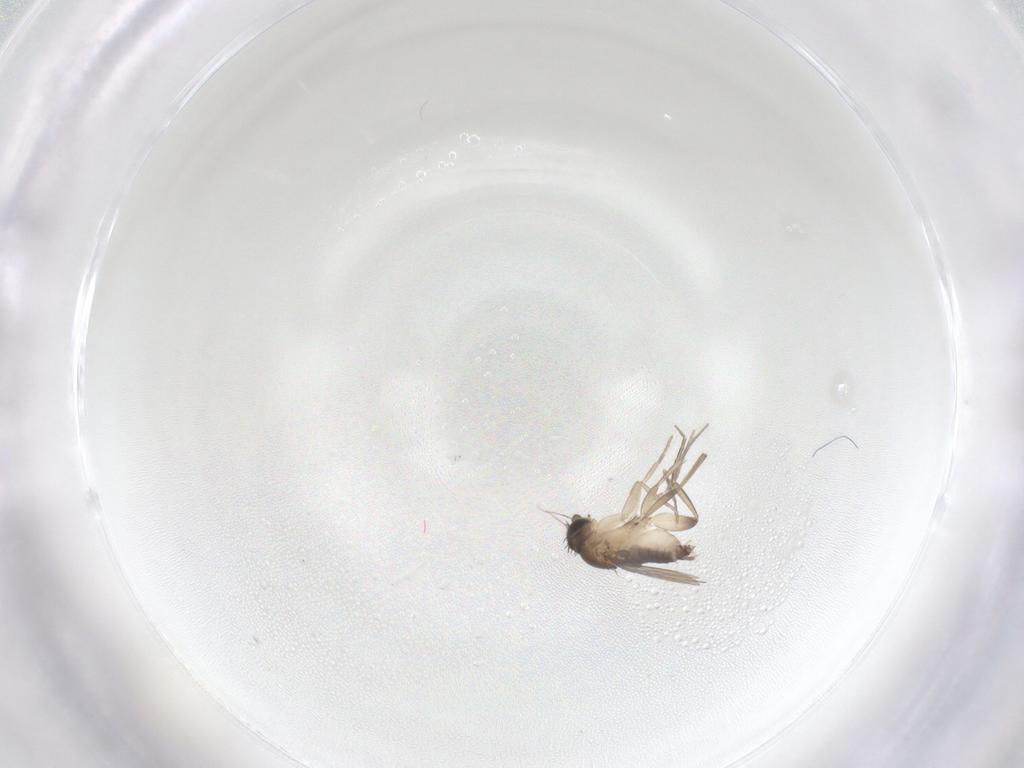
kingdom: Animalia
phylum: Arthropoda
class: Insecta
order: Diptera
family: Phoridae
